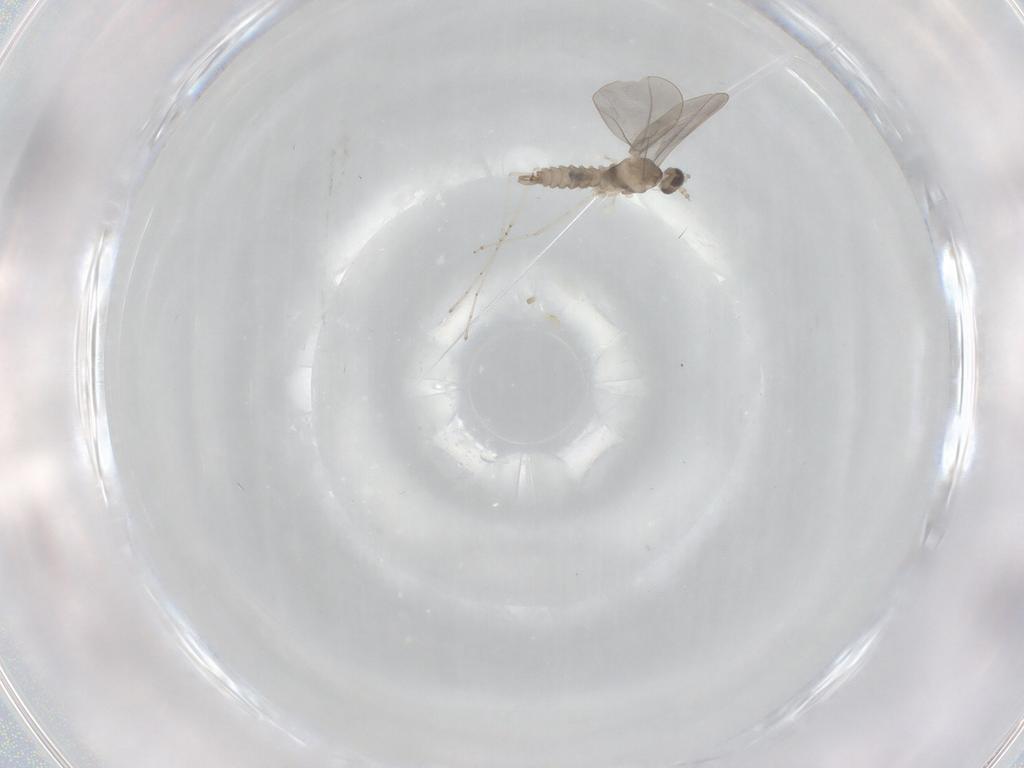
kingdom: Animalia
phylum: Arthropoda
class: Insecta
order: Diptera
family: Cecidomyiidae
